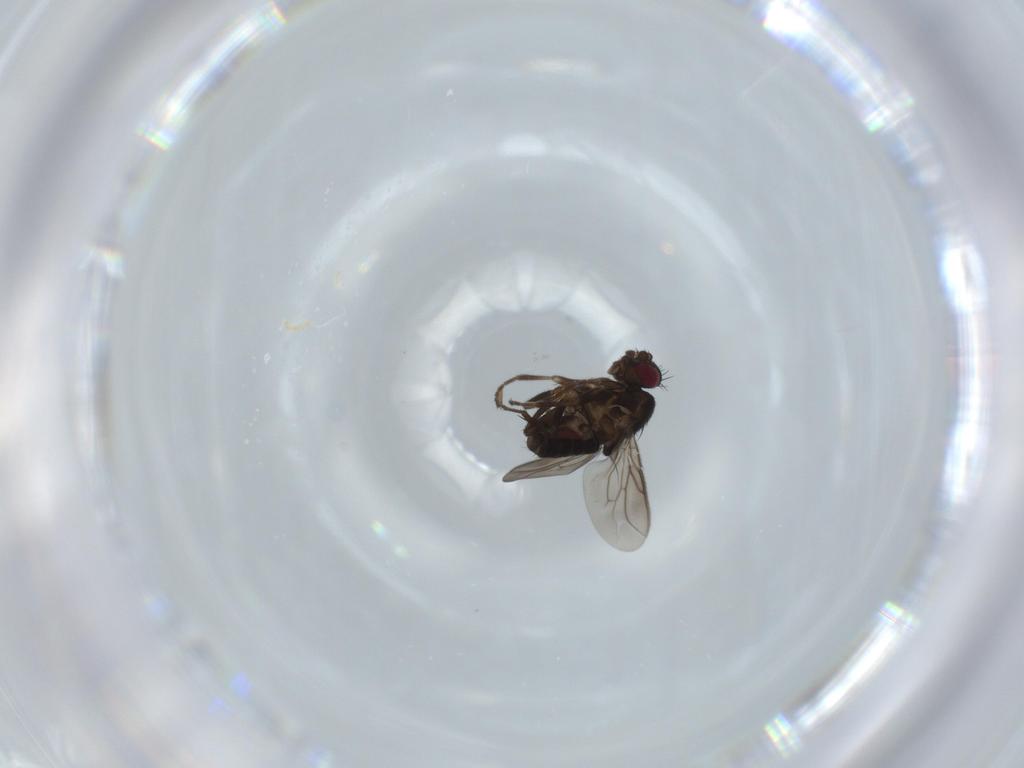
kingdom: Animalia
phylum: Arthropoda
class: Insecta
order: Diptera
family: Sphaeroceridae
